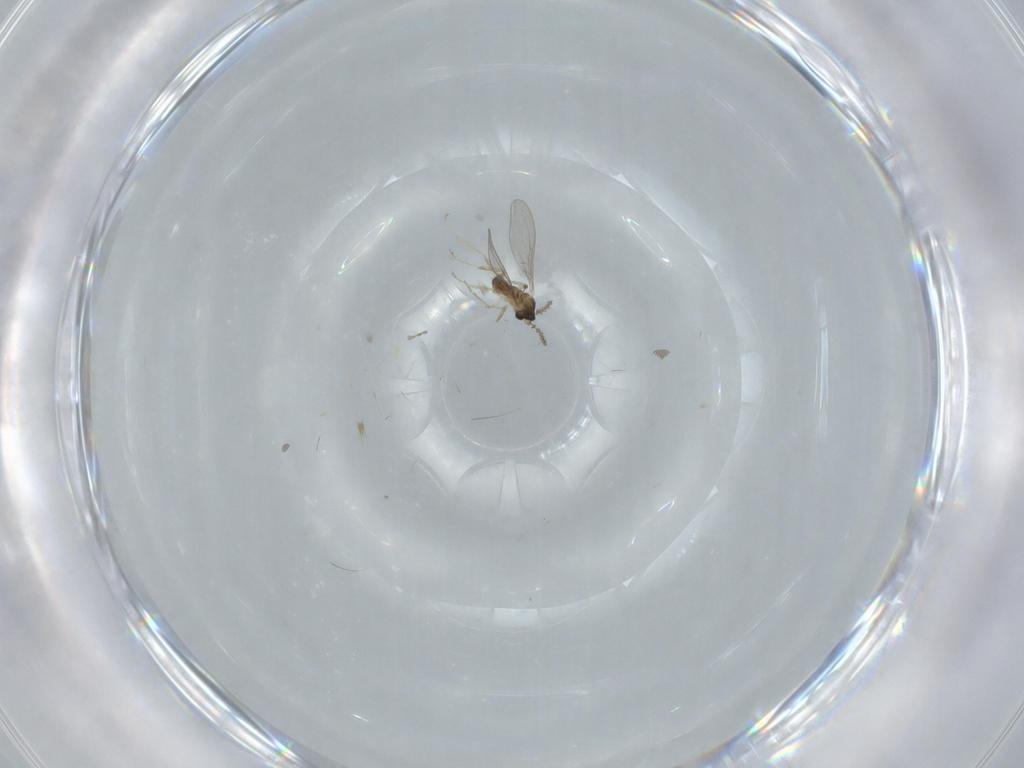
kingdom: Animalia
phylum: Arthropoda
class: Insecta
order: Diptera
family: Cecidomyiidae
